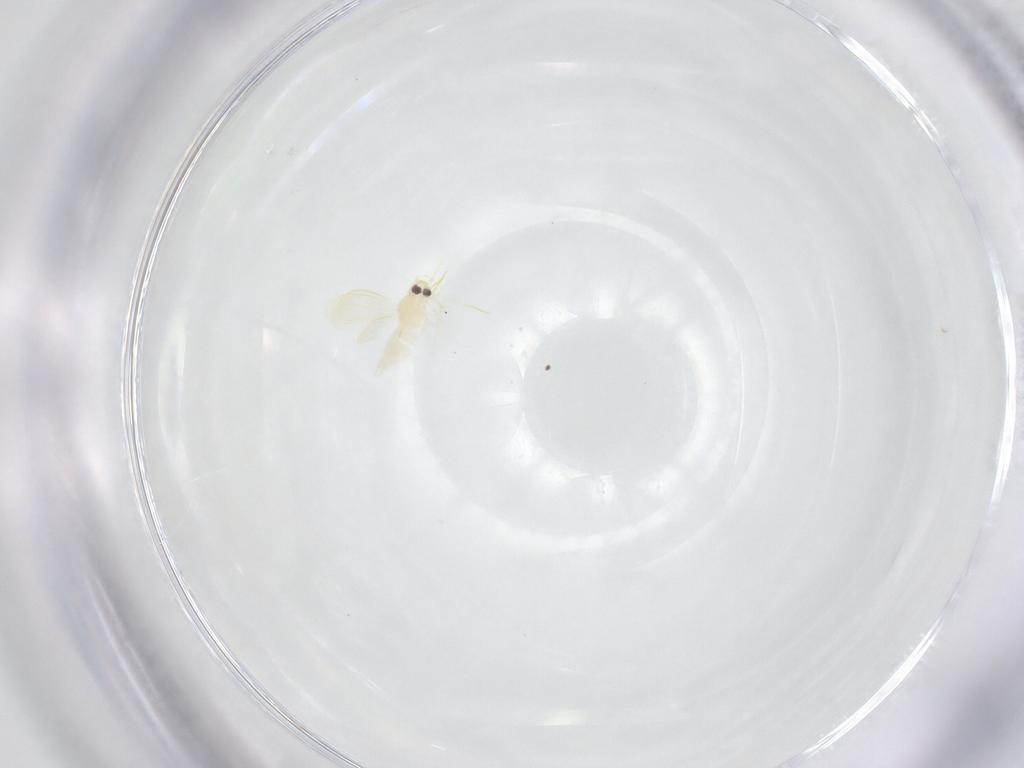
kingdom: Animalia
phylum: Arthropoda
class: Insecta
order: Hemiptera
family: Aleyrodidae
